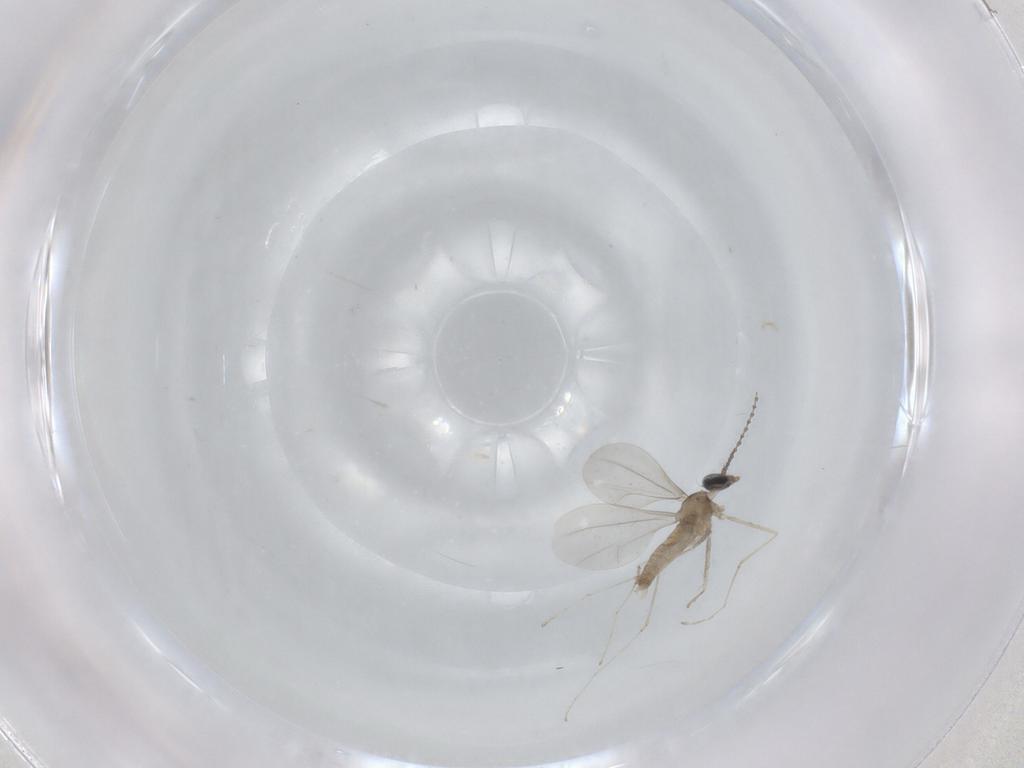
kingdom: Animalia
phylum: Arthropoda
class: Insecta
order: Diptera
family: Cecidomyiidae
